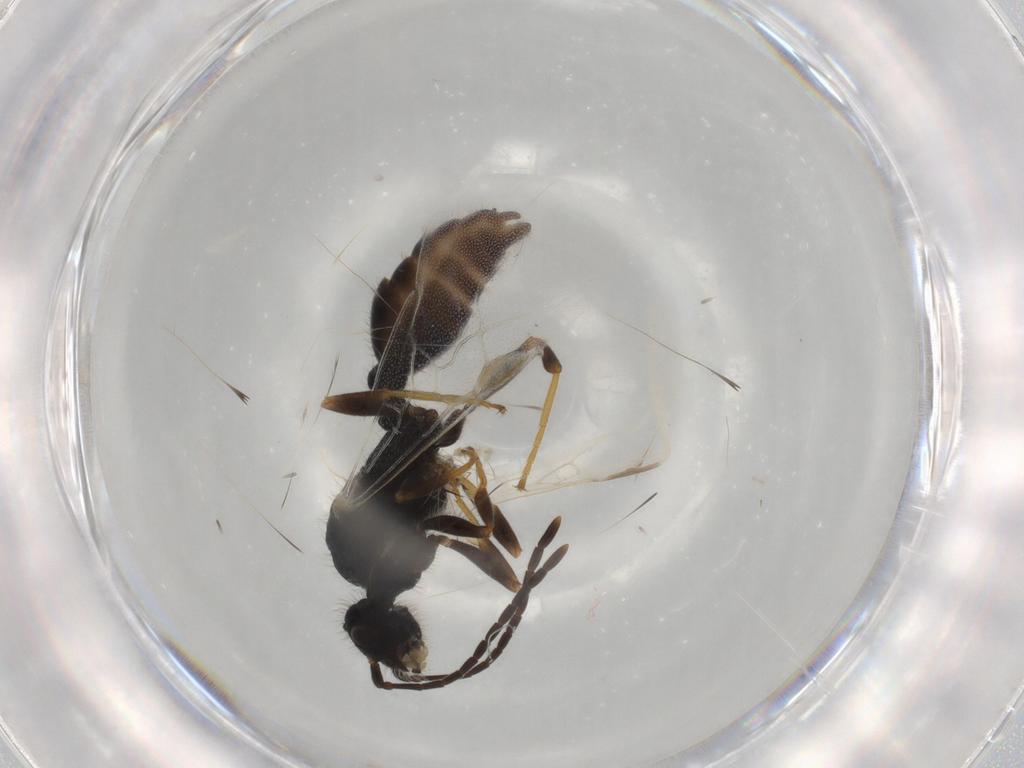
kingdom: Animalia
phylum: Arthropoda
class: Insecta
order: Hymenoptera
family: Formicidae
